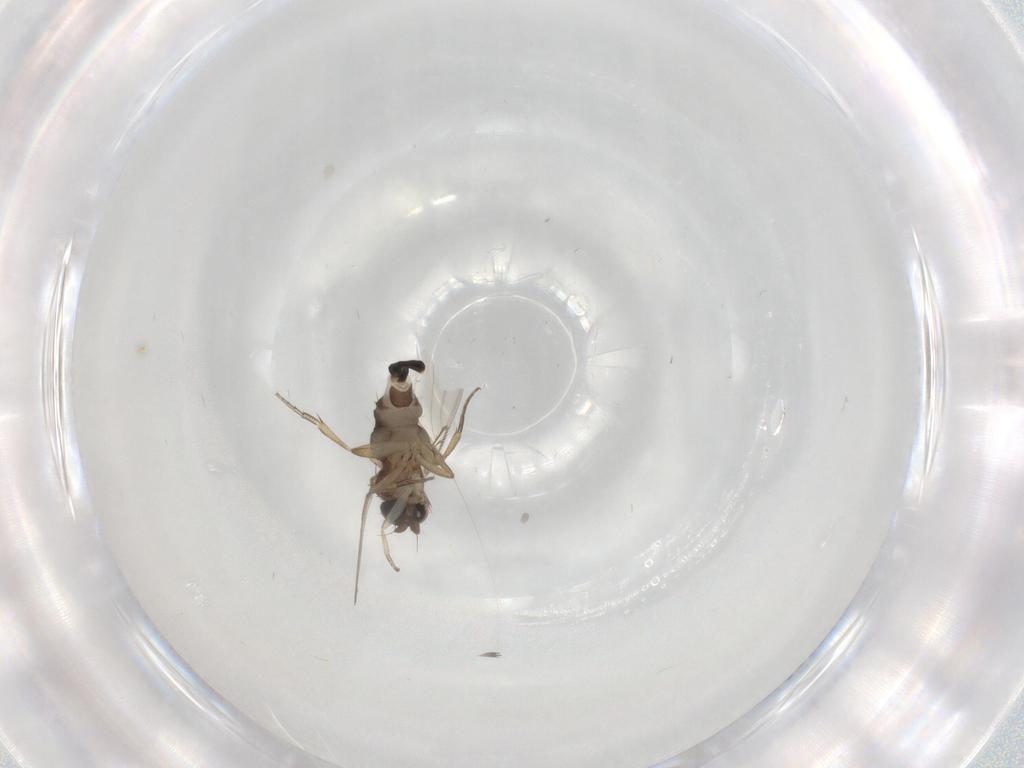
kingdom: Animalia
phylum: Arthropoda
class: Insecta
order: Diptera
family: Phoridae
